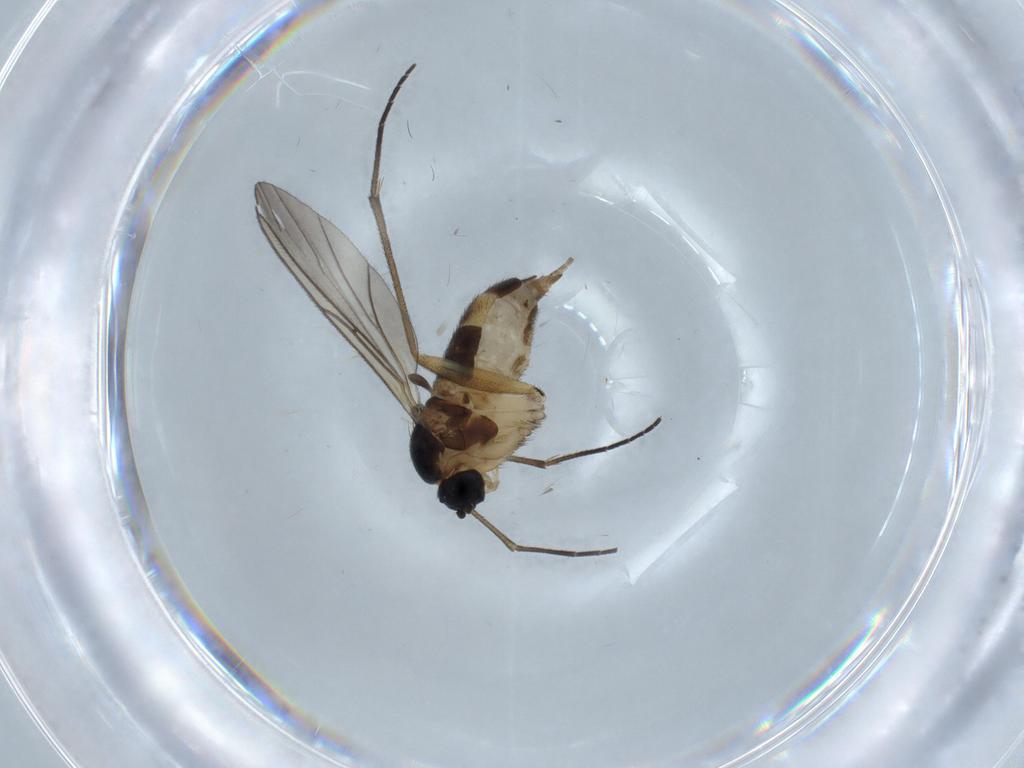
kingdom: Animalia
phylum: Arthropoda
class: Insecta
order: Diptera
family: Sciaridae
